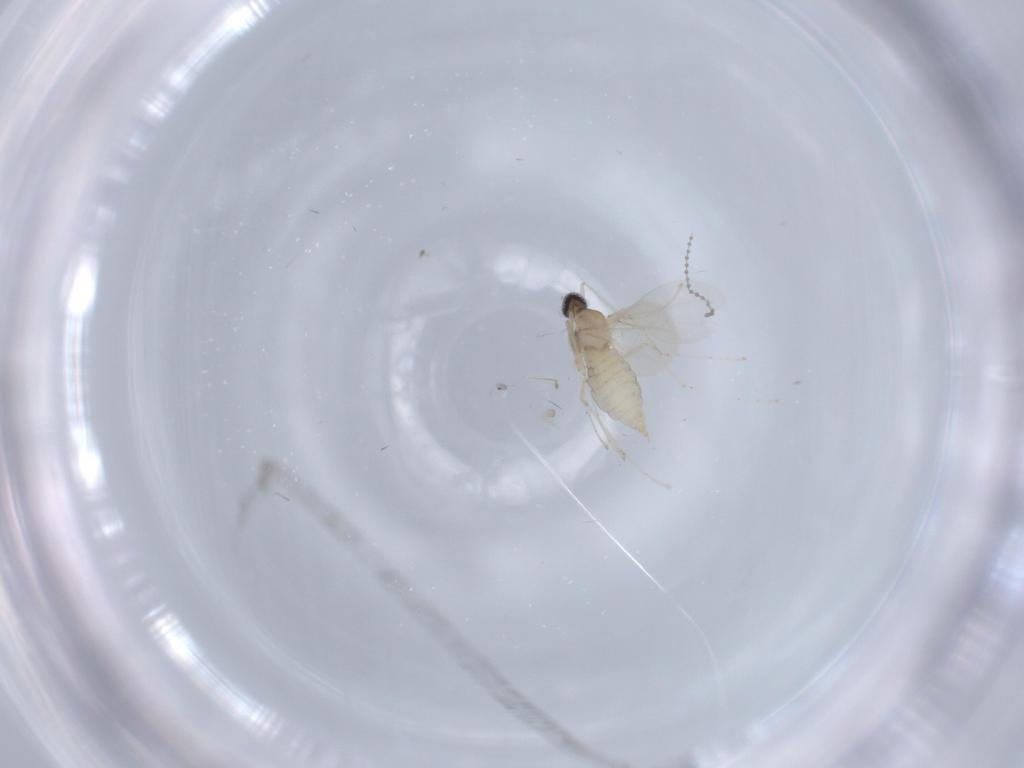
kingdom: Animalia
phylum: Arthropoda
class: Insecta
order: Diptera
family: Cecidomyiidae
